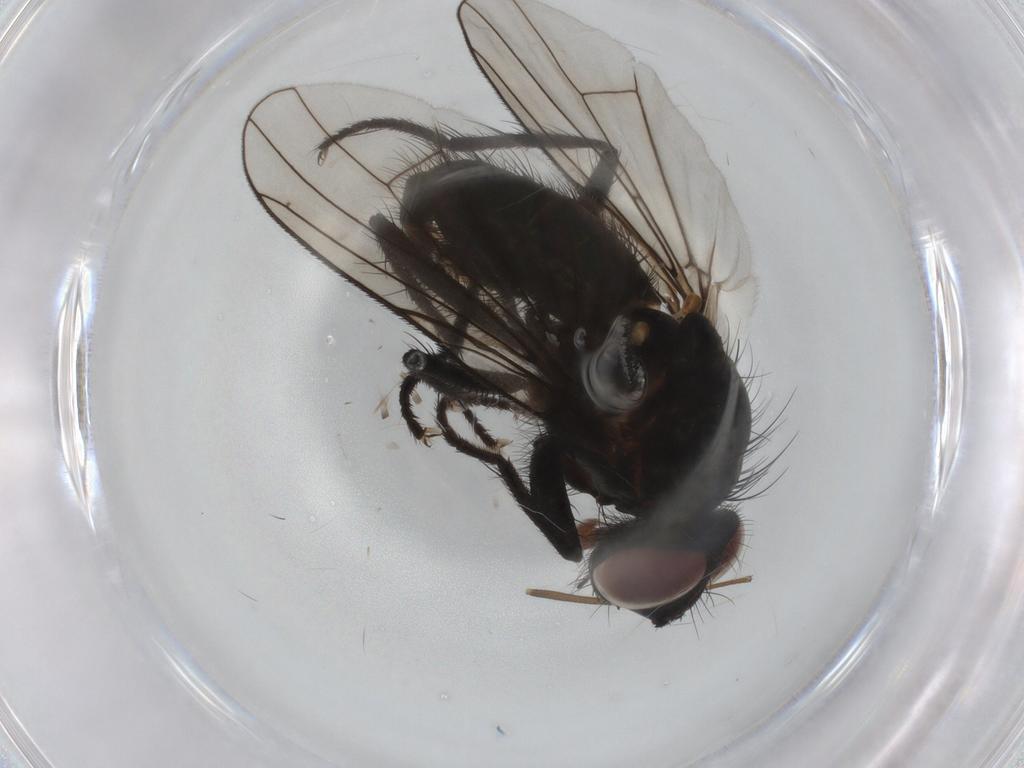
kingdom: Animalia
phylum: Arthropoda
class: Insecta
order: Diptera
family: Anthomyiidae
